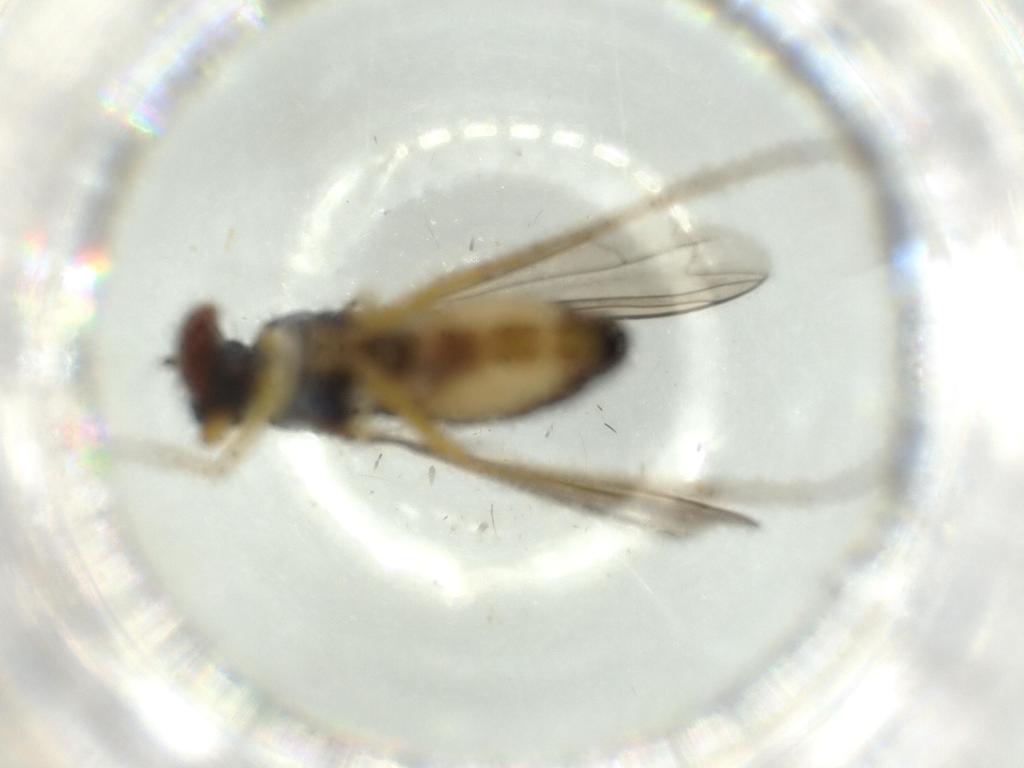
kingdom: Animalia
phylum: Arthropoda
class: Insecta
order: Diptera
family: Dolichopodidae
